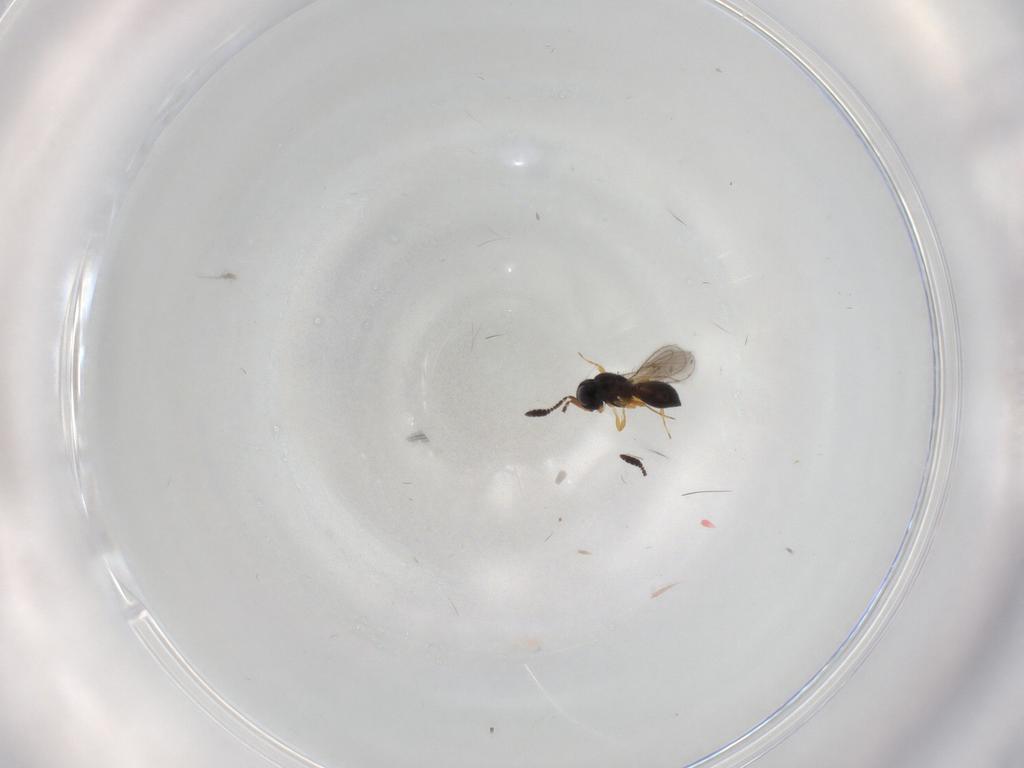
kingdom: Animalia
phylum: Arthropoda
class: Insecta
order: Hymenoptera
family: Scelionidae
